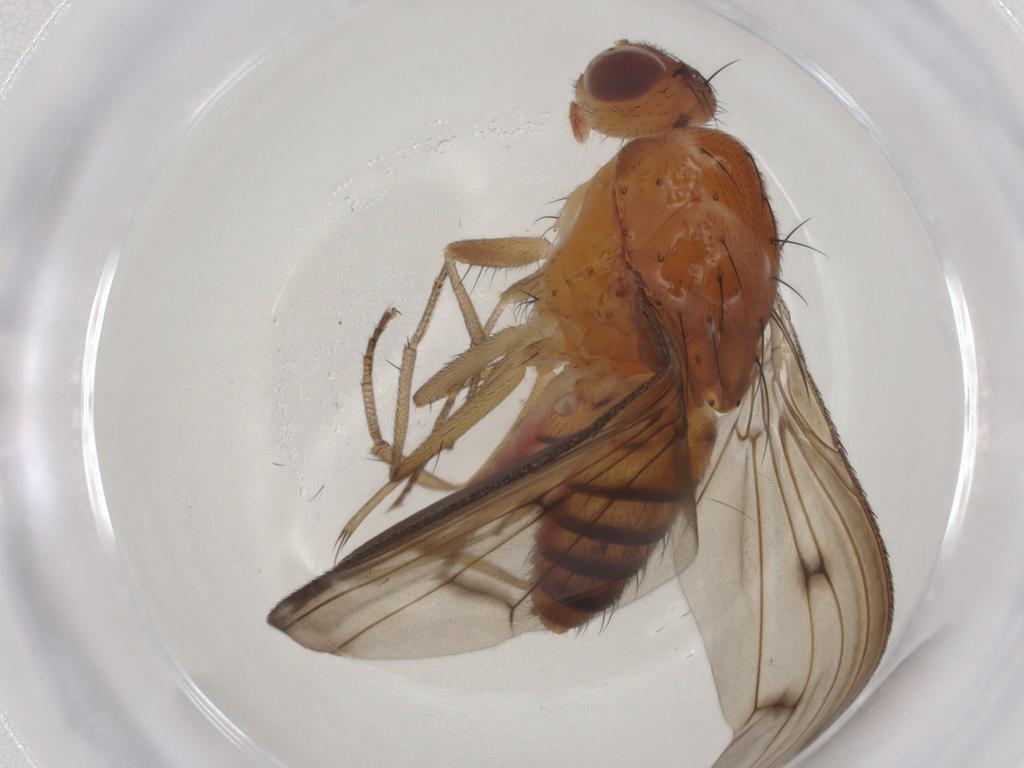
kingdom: Animalia
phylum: Arthropoda
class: Insecta
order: Diptera
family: Heleomyzidae
